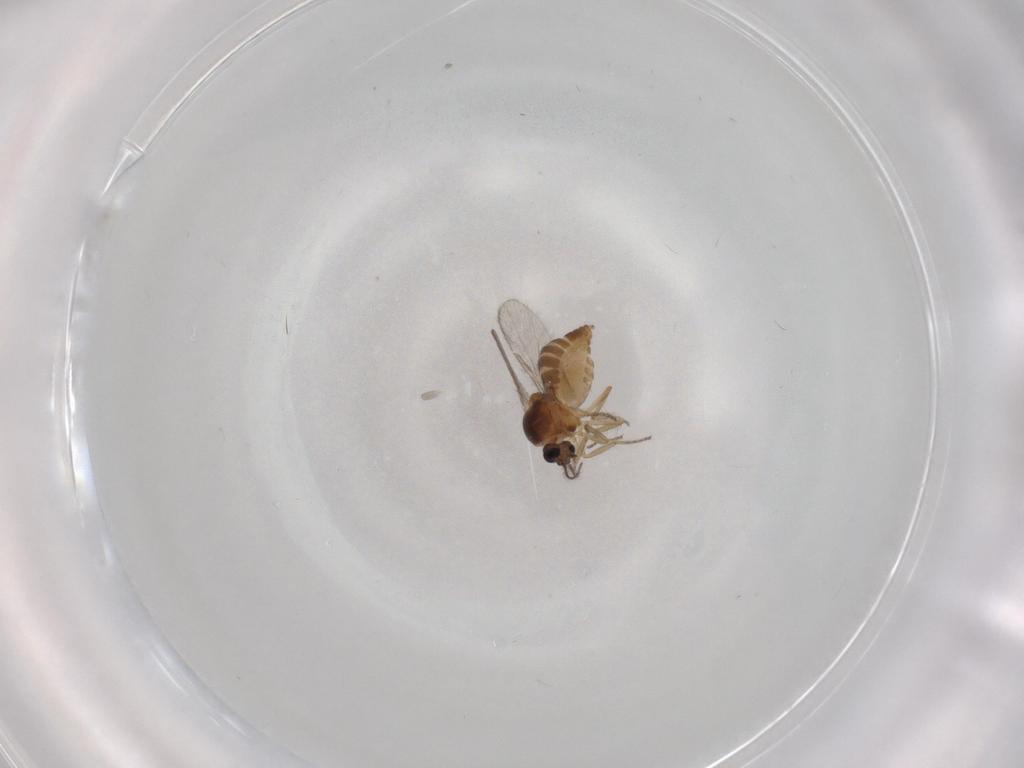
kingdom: Animalia
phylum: Arthropoda
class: Insecta
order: Diptera
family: Ceratopogonidae
